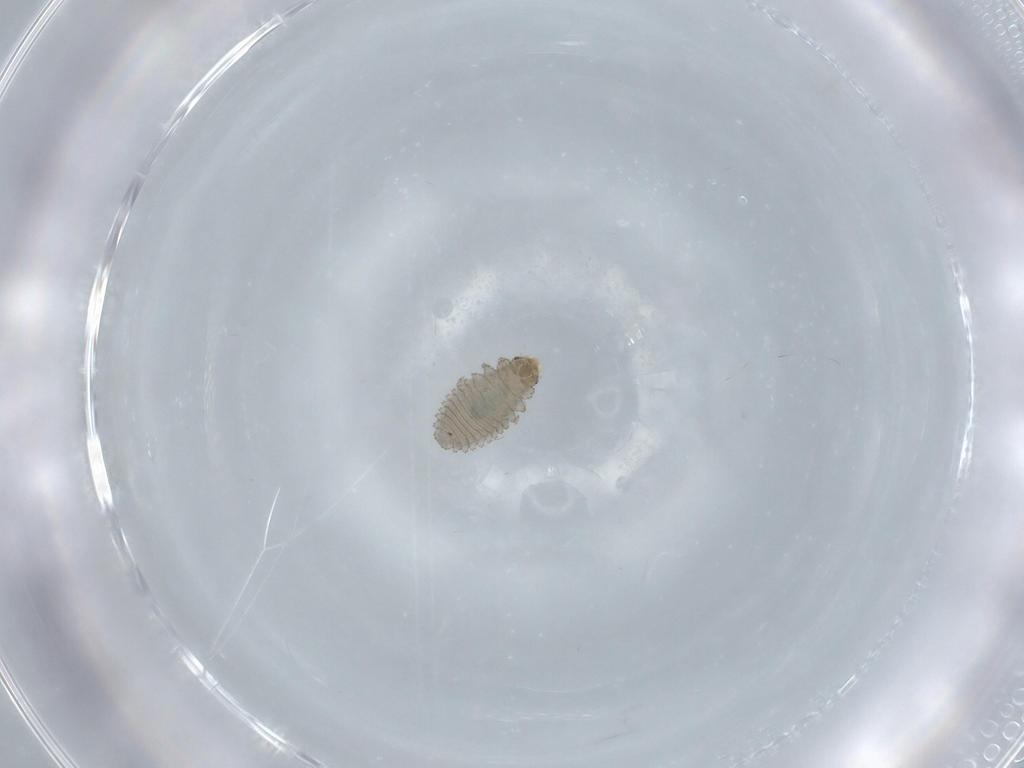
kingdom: Animalia
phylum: Arthropoda
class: Insecta
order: Coleoptera
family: Coccinellidae
